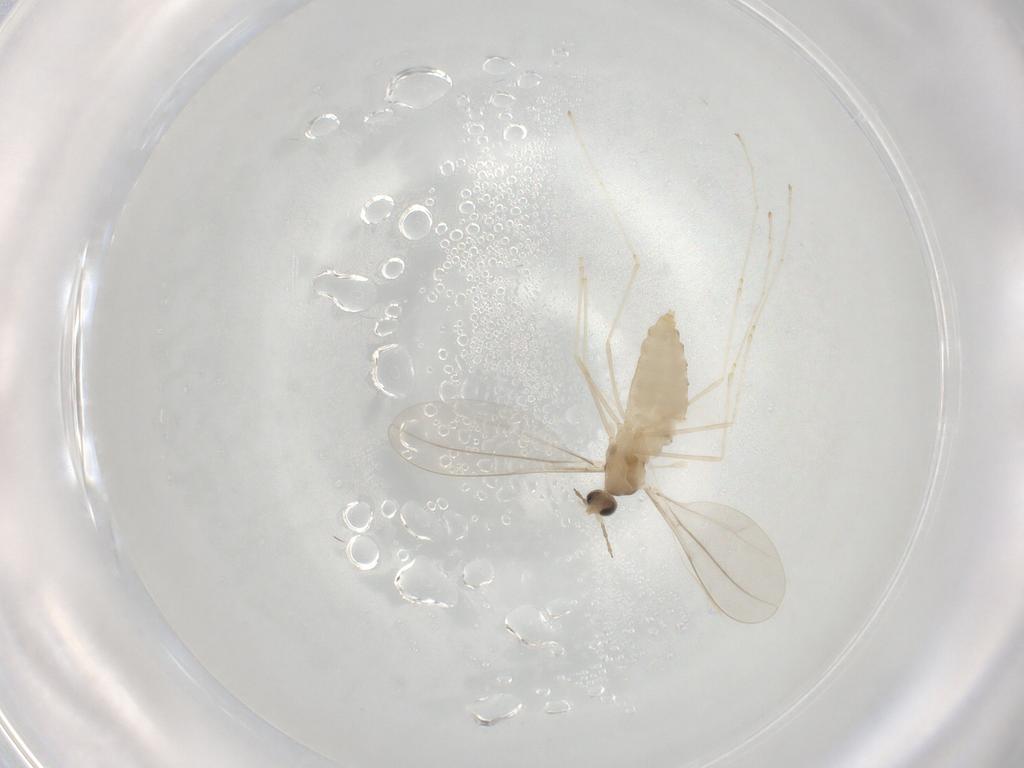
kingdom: Animalia
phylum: Arthropoda
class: Insecta
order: Diptera
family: Cecidomyiidae
